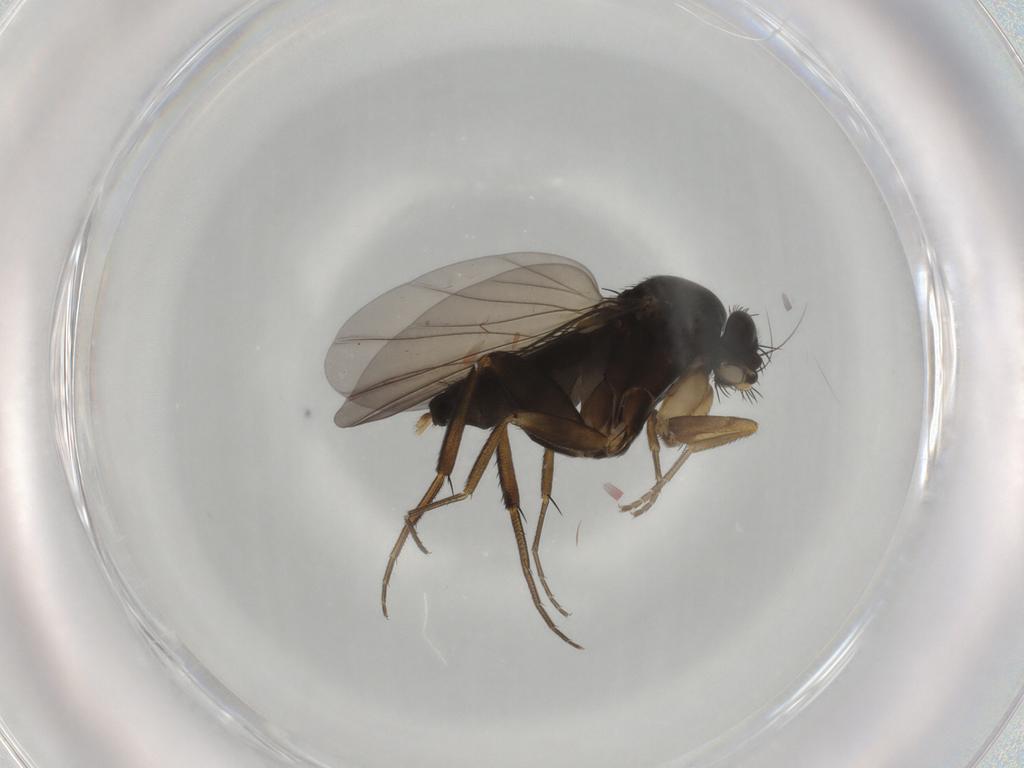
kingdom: Animalia
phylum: Arthropoda
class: Insecta
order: Diptera
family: Phoridae
